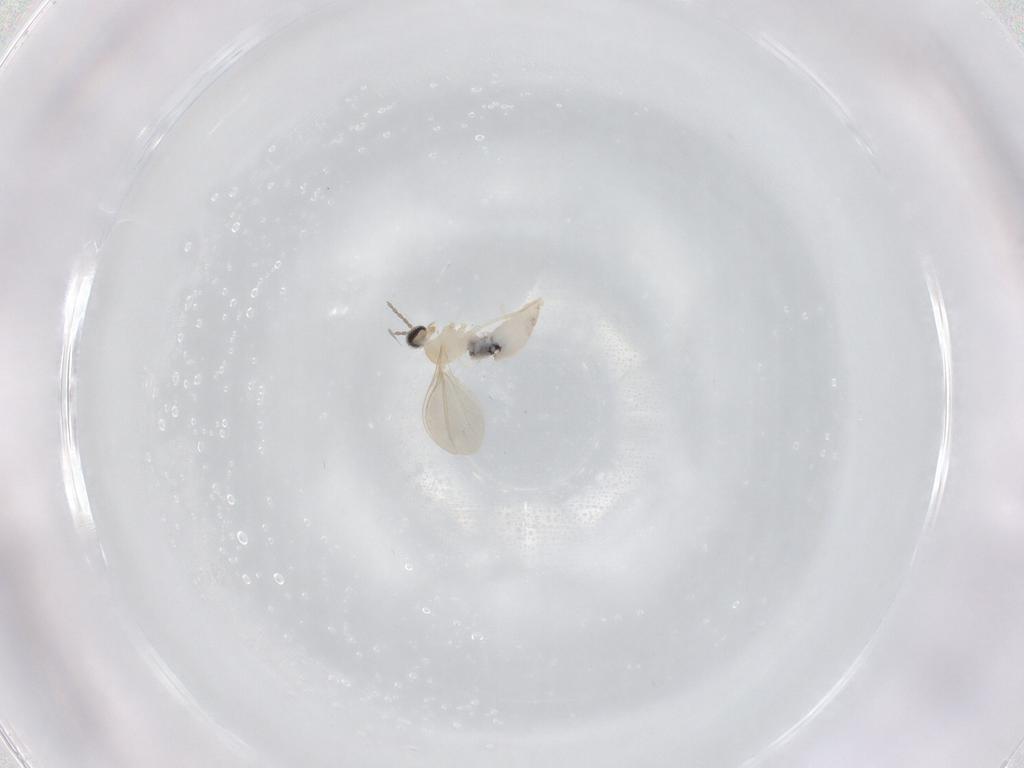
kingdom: Animalia
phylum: Arthropoda
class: Insecta
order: Diptera
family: Cecidomyiidae
